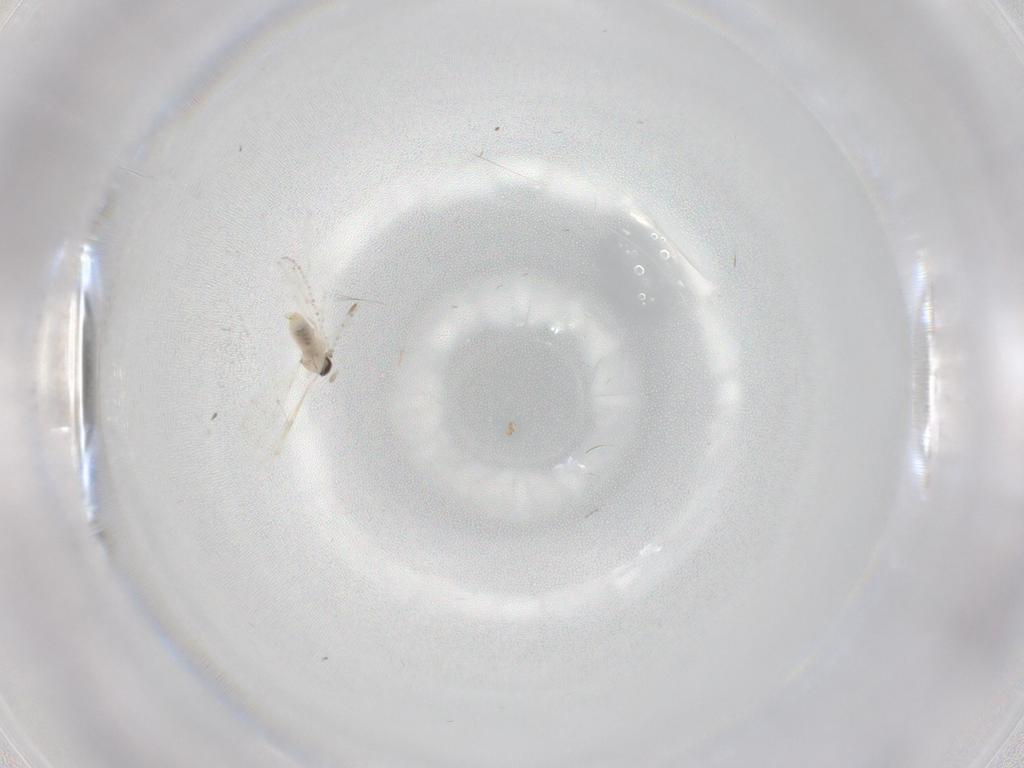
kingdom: Animalia
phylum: Arthropoda
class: Insecta
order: Diptera
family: Cecidomyiidae
